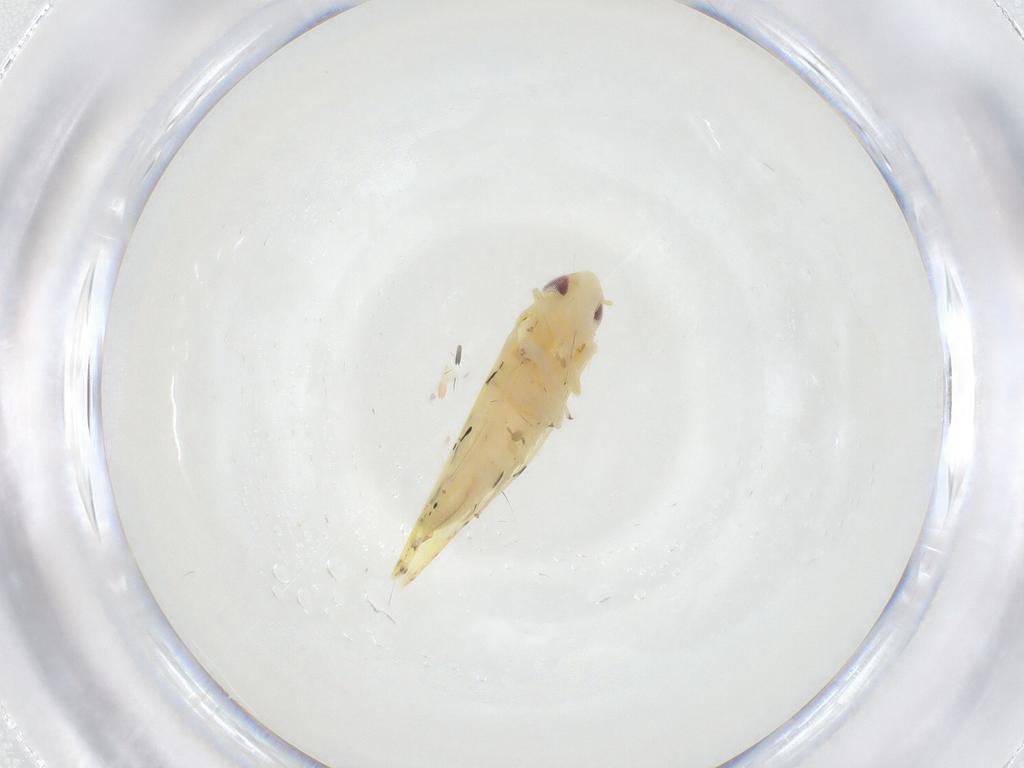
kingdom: Animalia
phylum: Arthropoda
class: Insecta
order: Hemiptera
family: Cicadellidae
